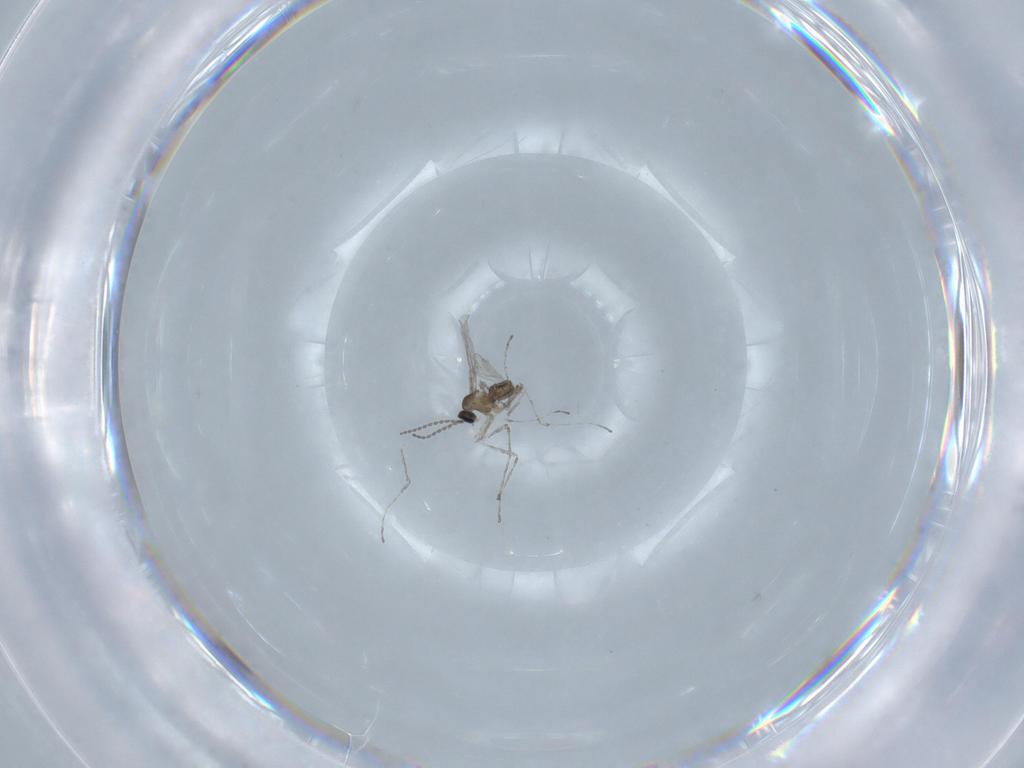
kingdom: Animalia
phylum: Arthropoda
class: Insecta
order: Diptera
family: Cecidomyiidae
